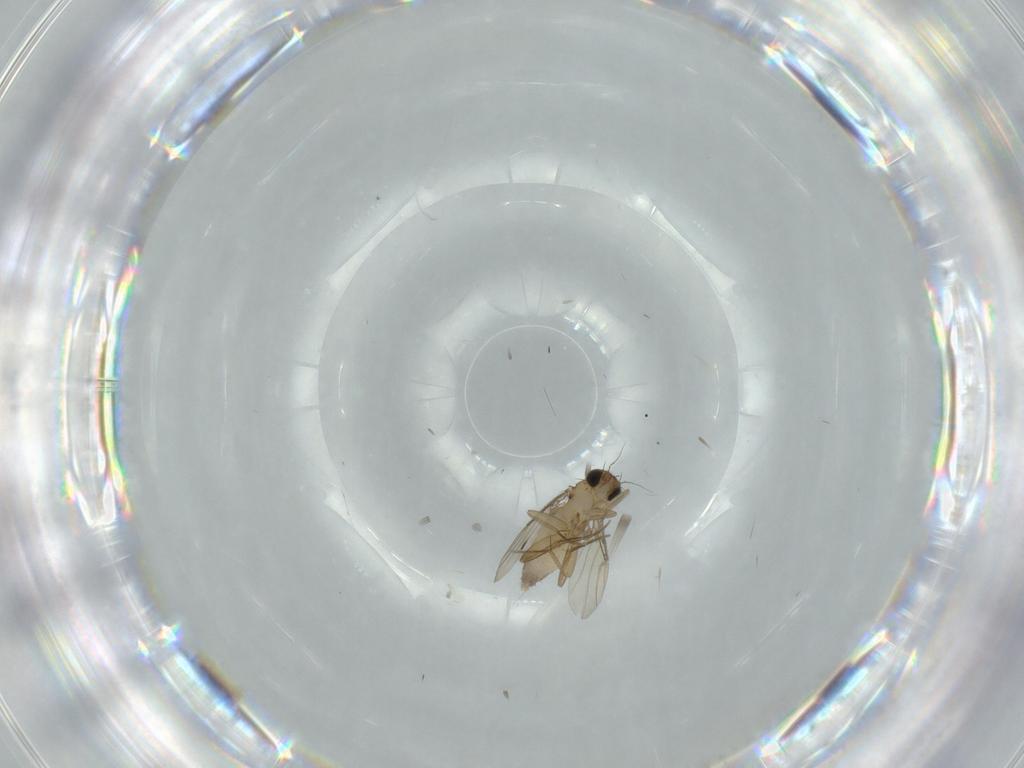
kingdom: Animalia
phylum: Arthropoda
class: Insecta
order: Diptera
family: Phoridae
